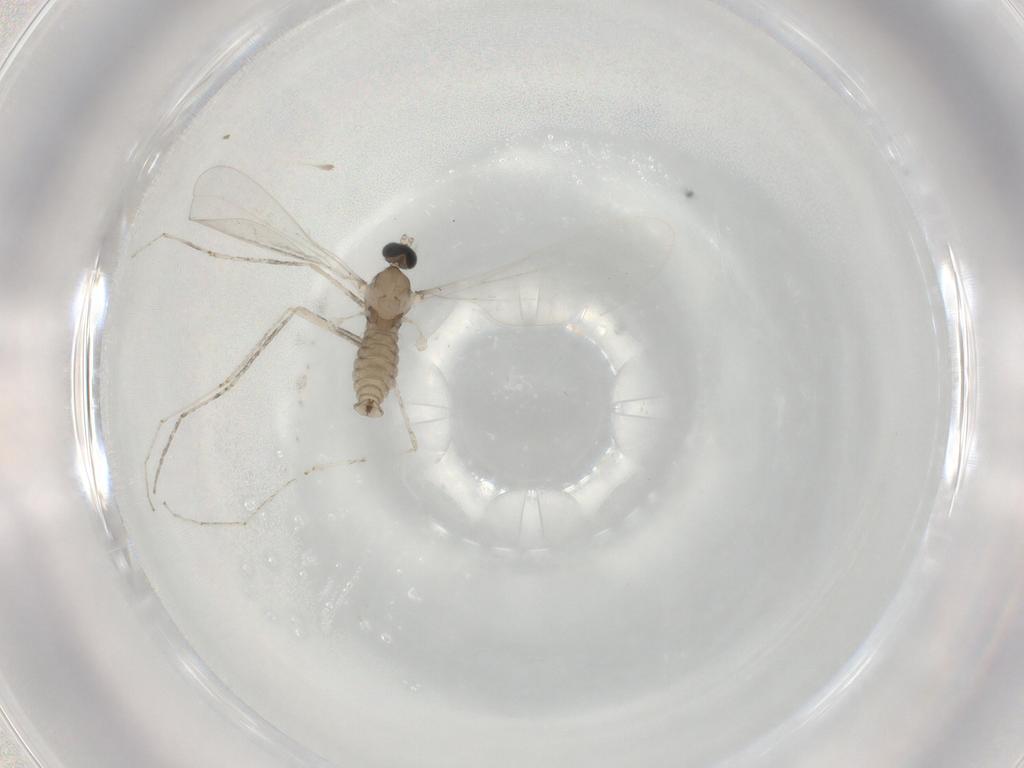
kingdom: Animalia
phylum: Arthropoda
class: Insecta
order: Diptera
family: Cecidomyiidae
